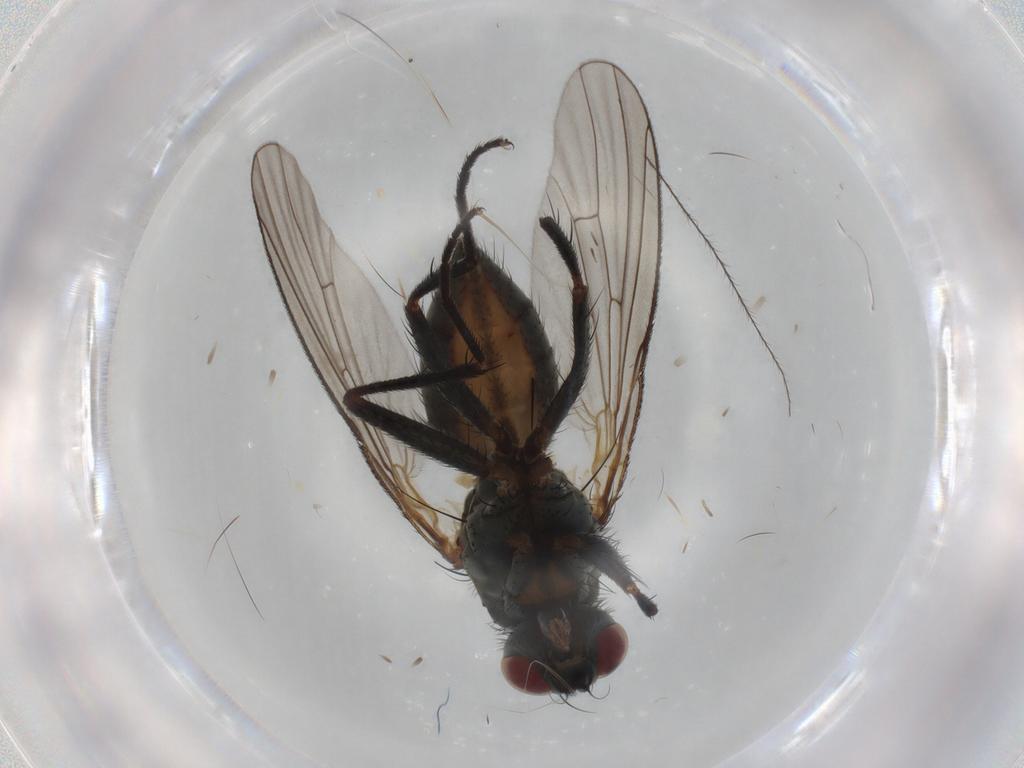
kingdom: Animalia
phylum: Arthropoda
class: Insecta
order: Diptera
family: Muscidae
